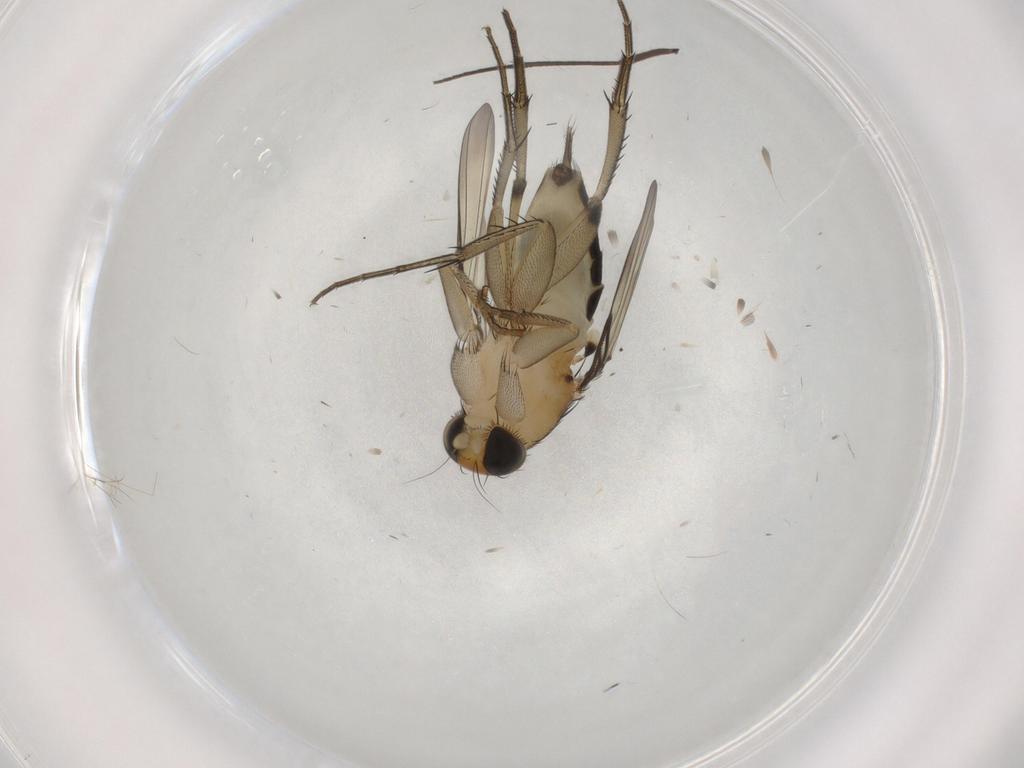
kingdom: Animalia
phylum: Arthropoda
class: Insecta
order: Diptera
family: Phoridae
